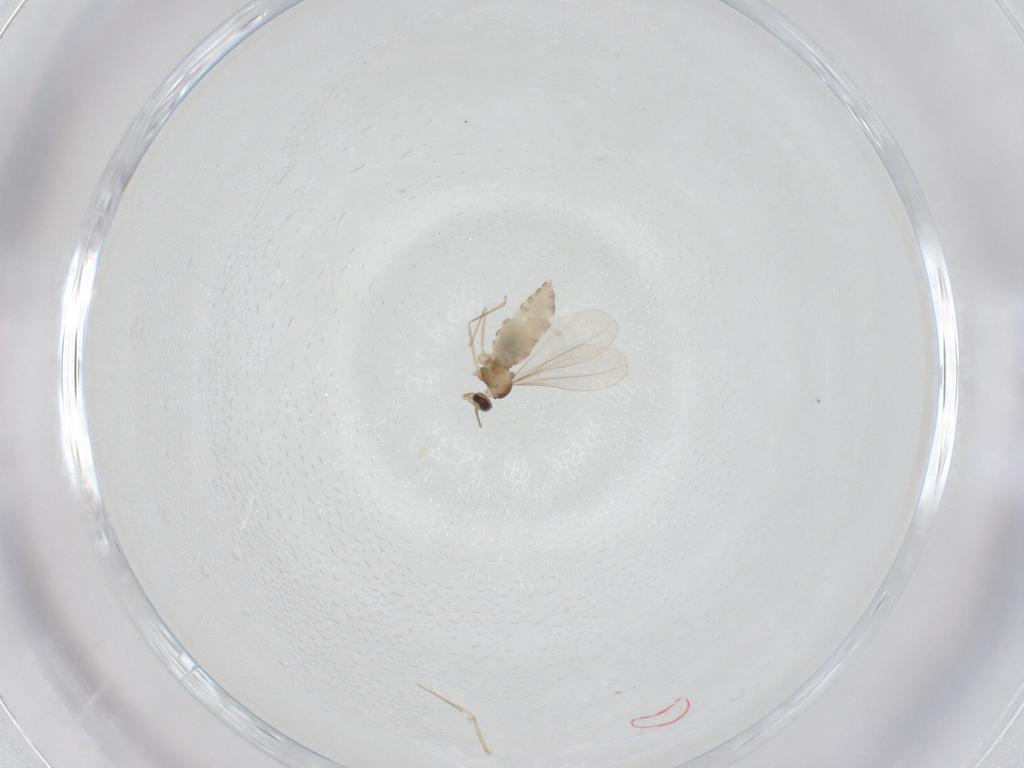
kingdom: Animalia
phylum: Arthropoda
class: Insecta
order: Diptera
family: Cecidomyiidae
